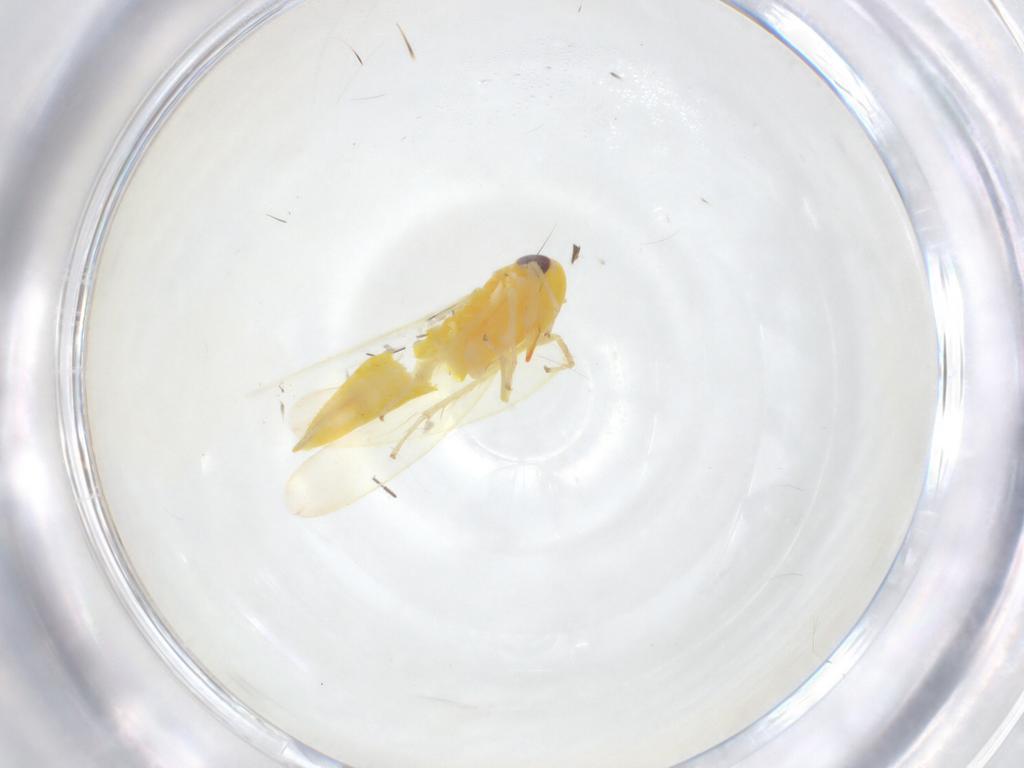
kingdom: Animalia
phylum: Arthropoda
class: Insecta
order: Hemiptera
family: Cicadellidae
